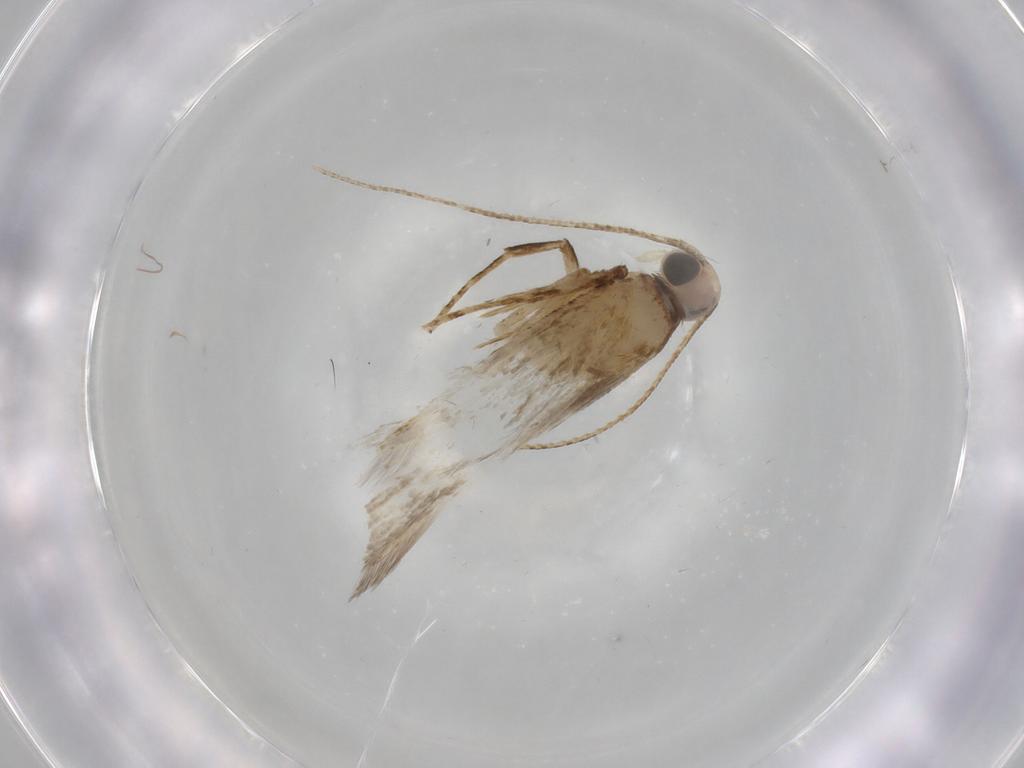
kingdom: Animalia
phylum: Arthropoda
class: Insecta
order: Lepidoptera
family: Gelechiidae
